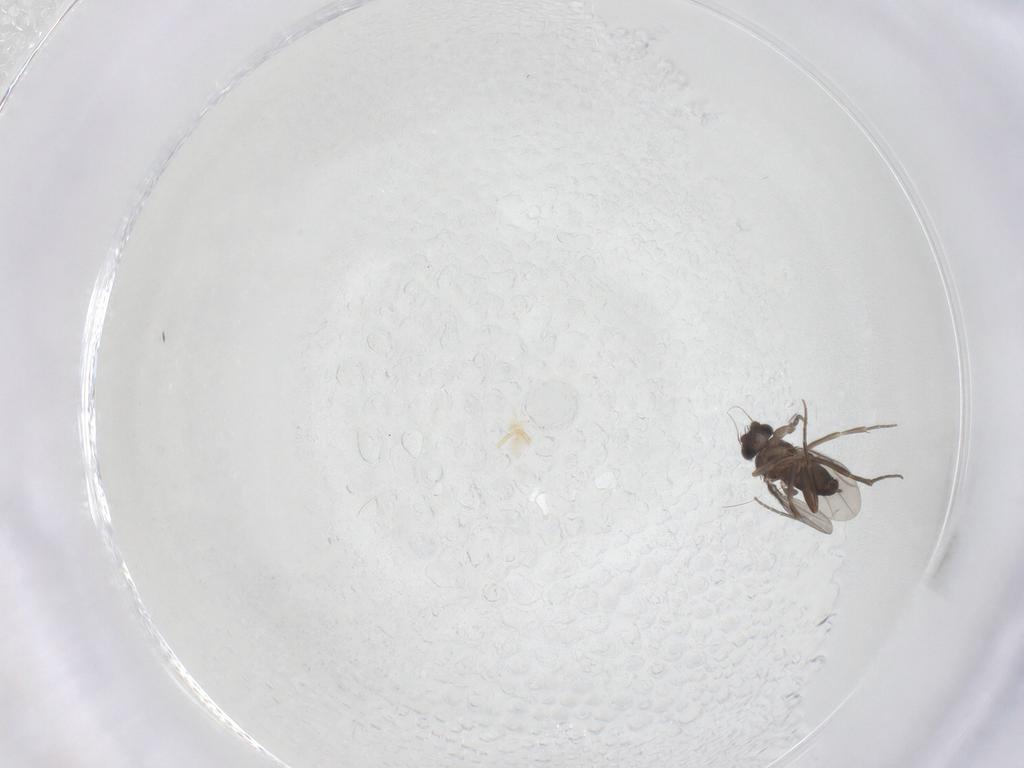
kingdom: Animalia
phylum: Arthropoda
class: Insecta
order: Diptera
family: Phoridae
